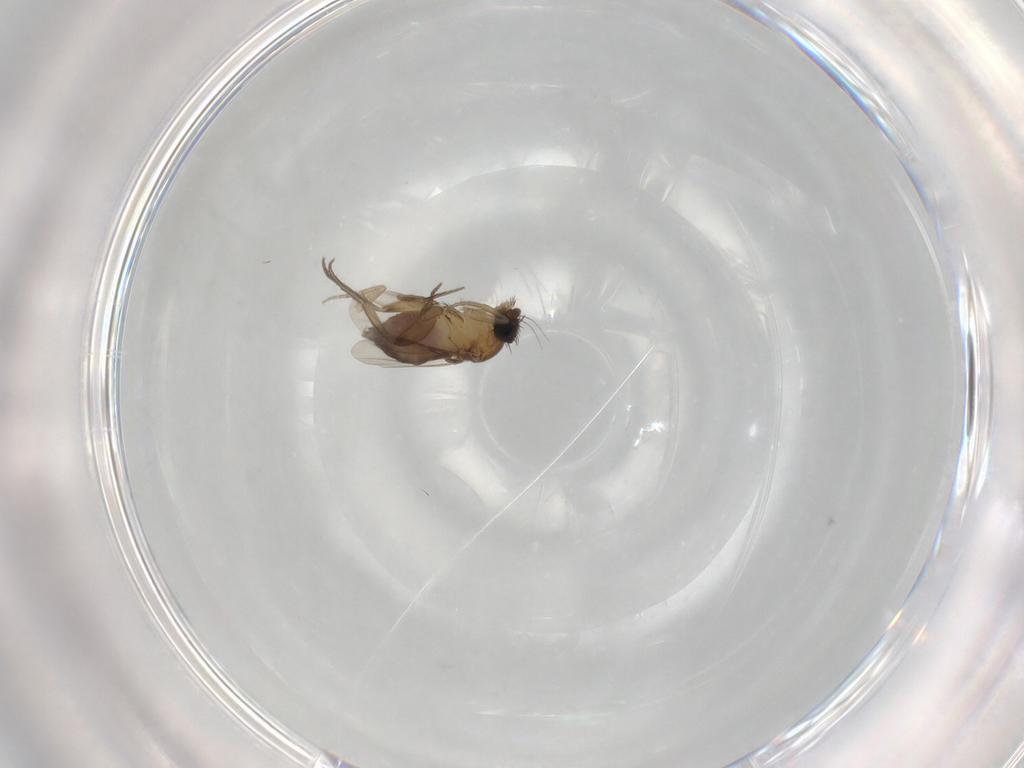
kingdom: Animalia
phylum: Arthropoda
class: Insecta
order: Diptera
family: Phoridae
